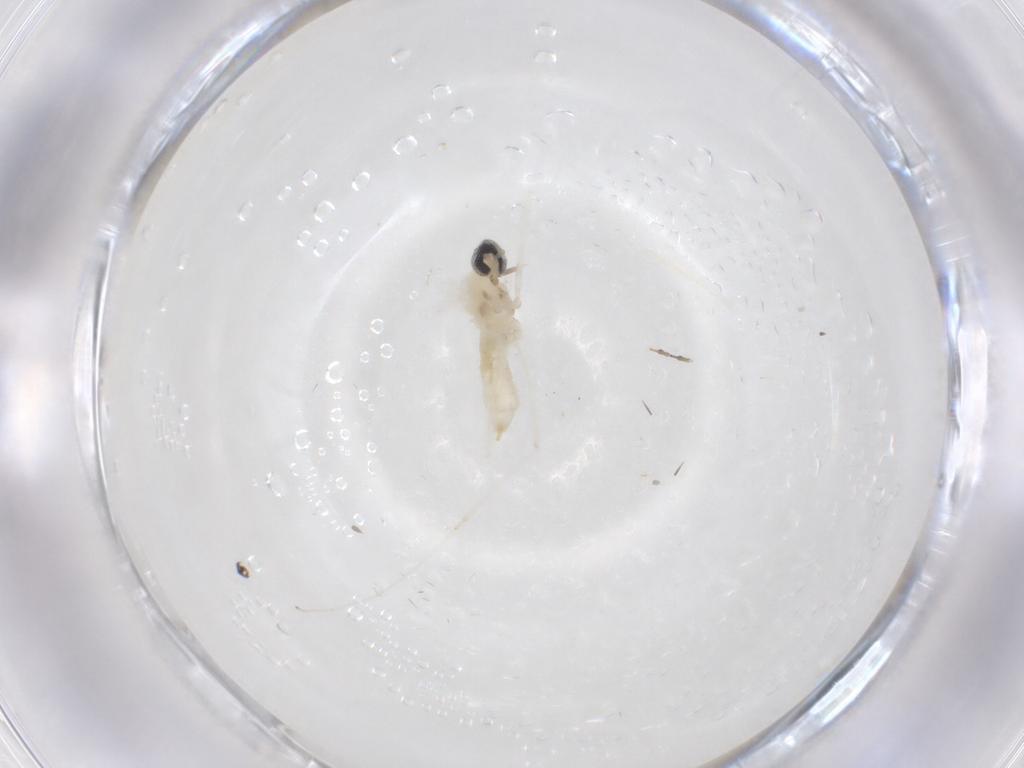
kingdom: Animalia
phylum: Arthropoda
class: Insecta
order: Diptera
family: Cecidomyiidae
